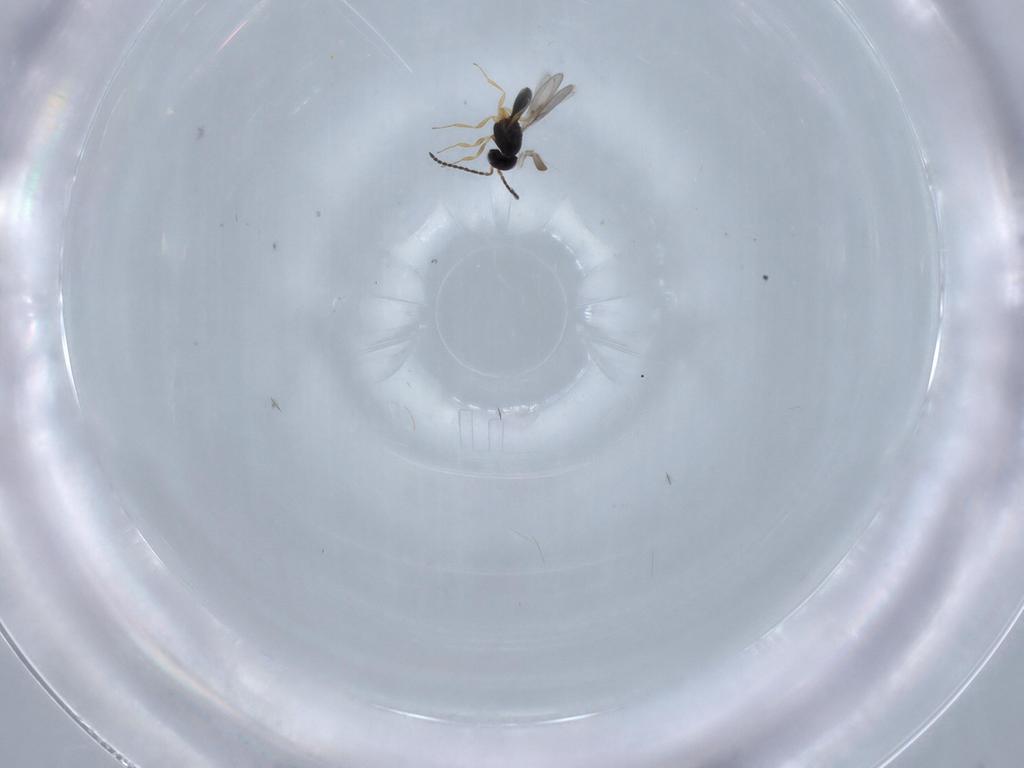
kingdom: Animalia
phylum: Arthropoda
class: Insecta
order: Hymenoptera
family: Scelionidae
